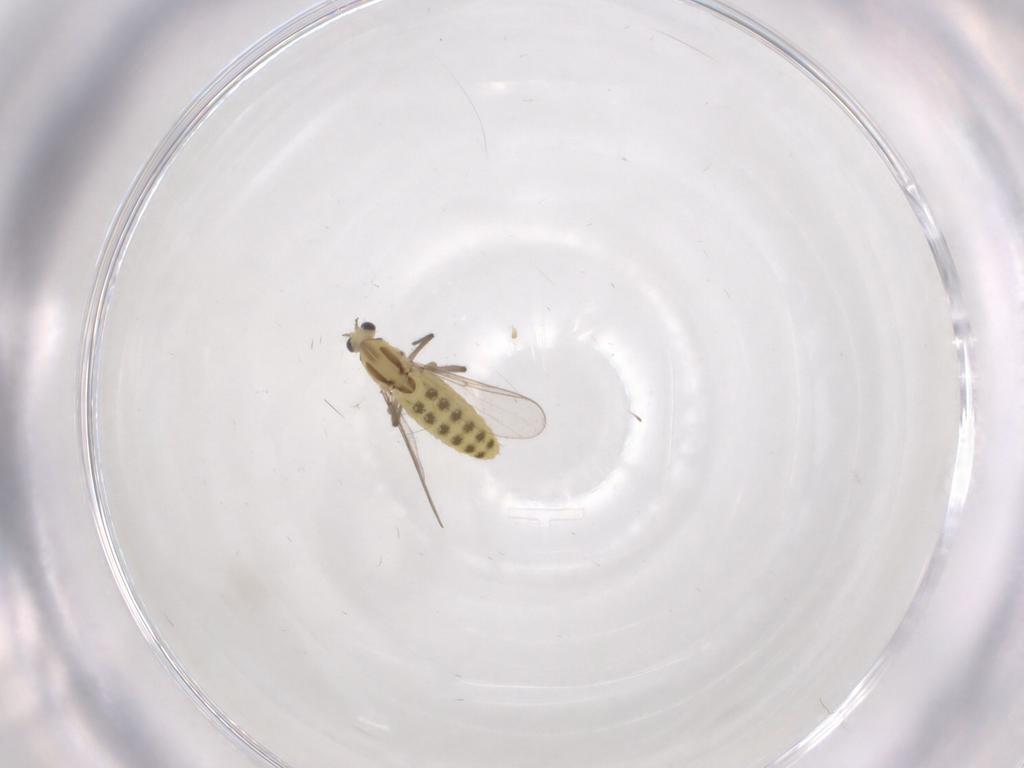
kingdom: Animalia
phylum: Arthropoda
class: Insecta
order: Diptera
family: Chironomidae
